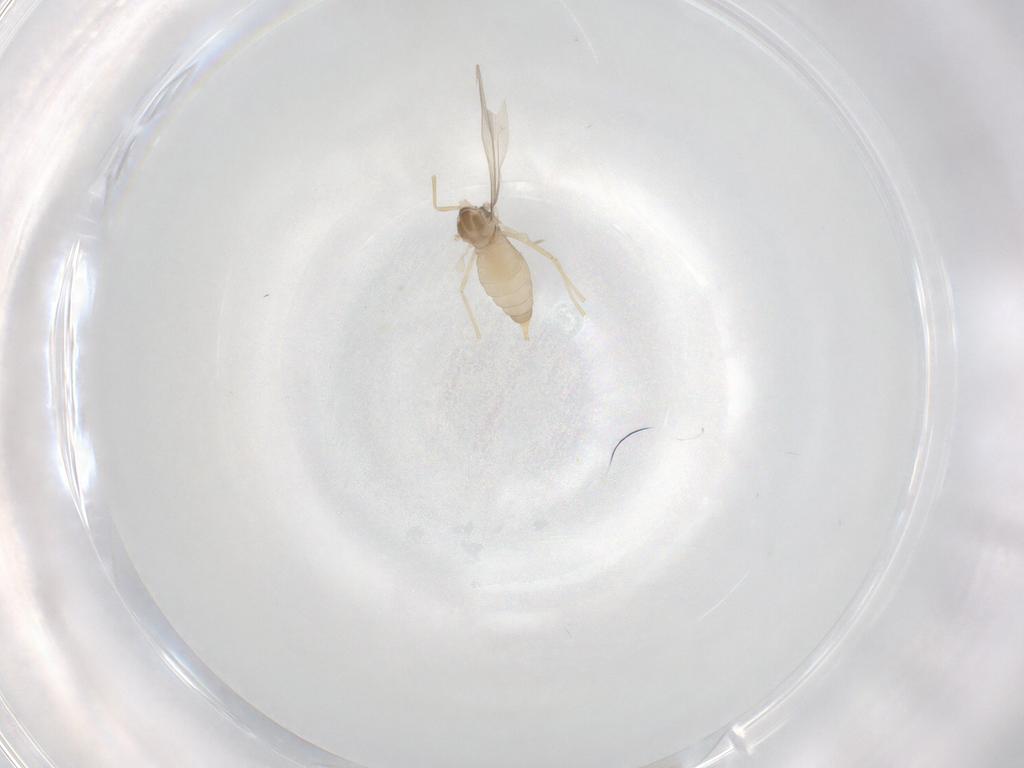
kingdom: Animalia
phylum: Arthropoda
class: Insecta
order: Diptera
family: Cecidomyiidae
